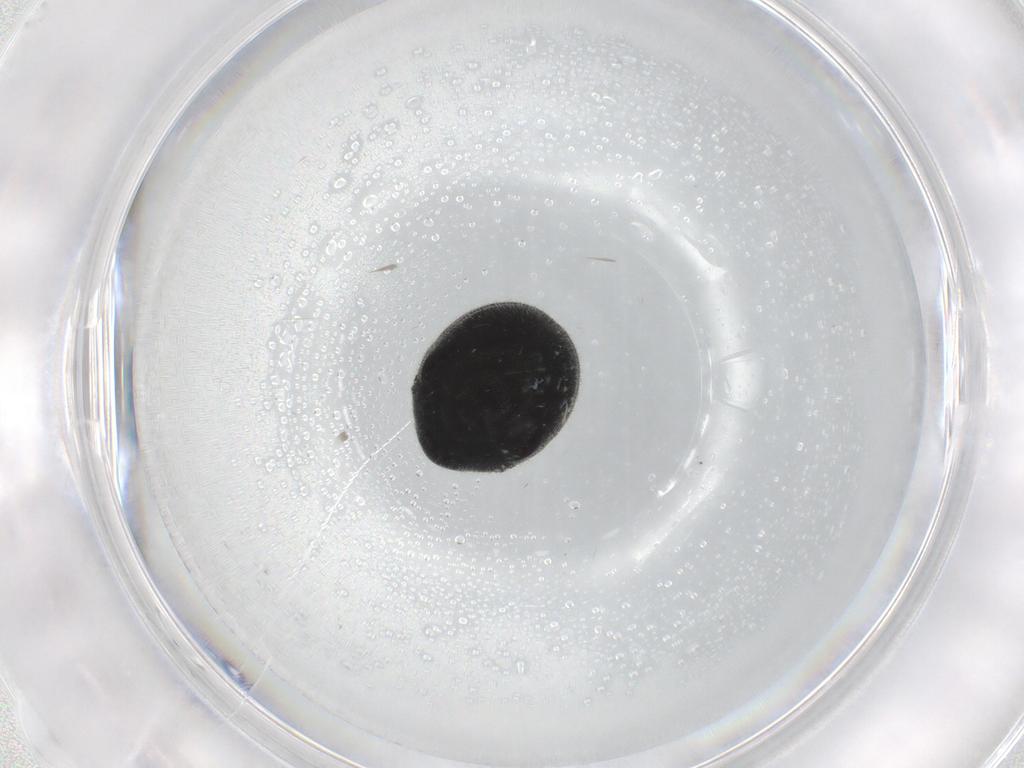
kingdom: Animalia
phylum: Arthropoda
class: Insecta
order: Coleoptera
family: Ptinidae
